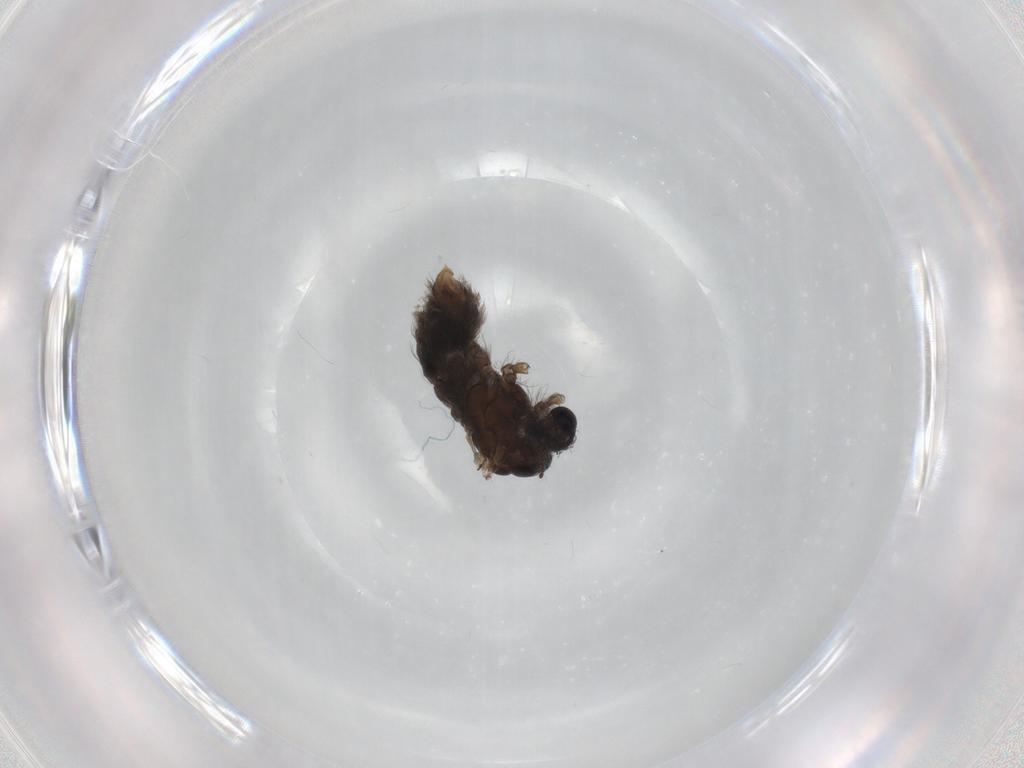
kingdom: Animalia
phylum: Arthropoda
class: Insecta
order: Diptera
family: Limoniidae
